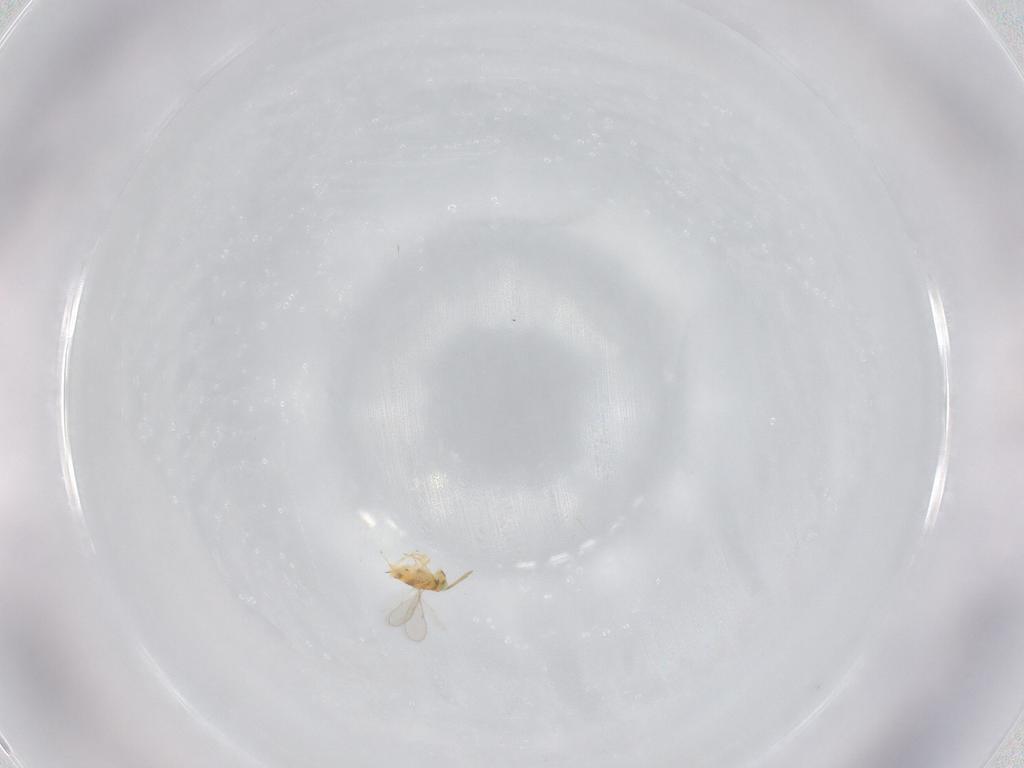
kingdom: Animalia
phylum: Arthropoda
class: Insecta
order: Hymenoptera
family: Aphelinidae
